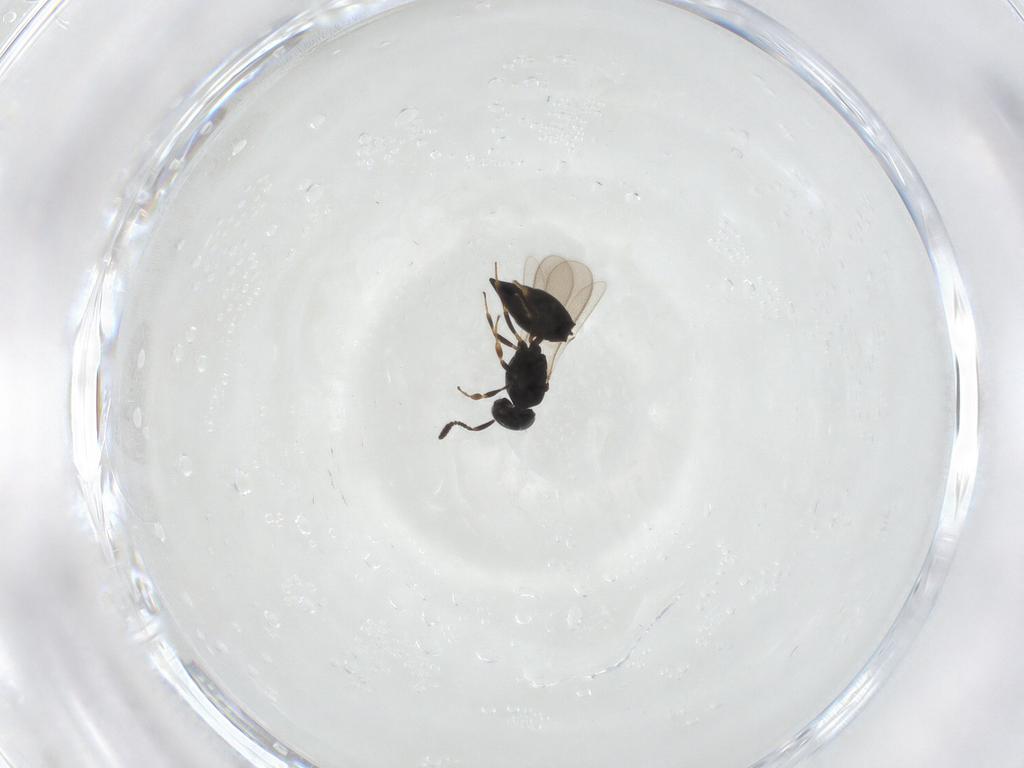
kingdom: Animalia
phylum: Arthropoda
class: Insecta
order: Hymenoptera
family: Scelionidae
